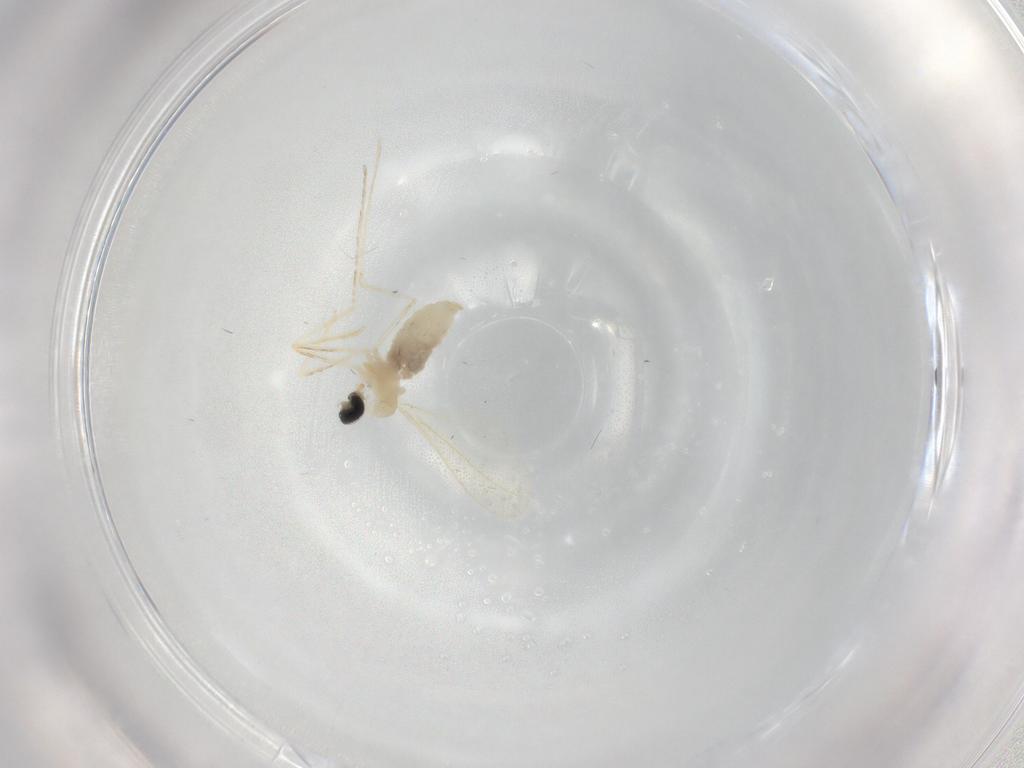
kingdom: Animalia
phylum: Arthropoda
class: Insecta
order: Diptera
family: Cecidomyiidae
